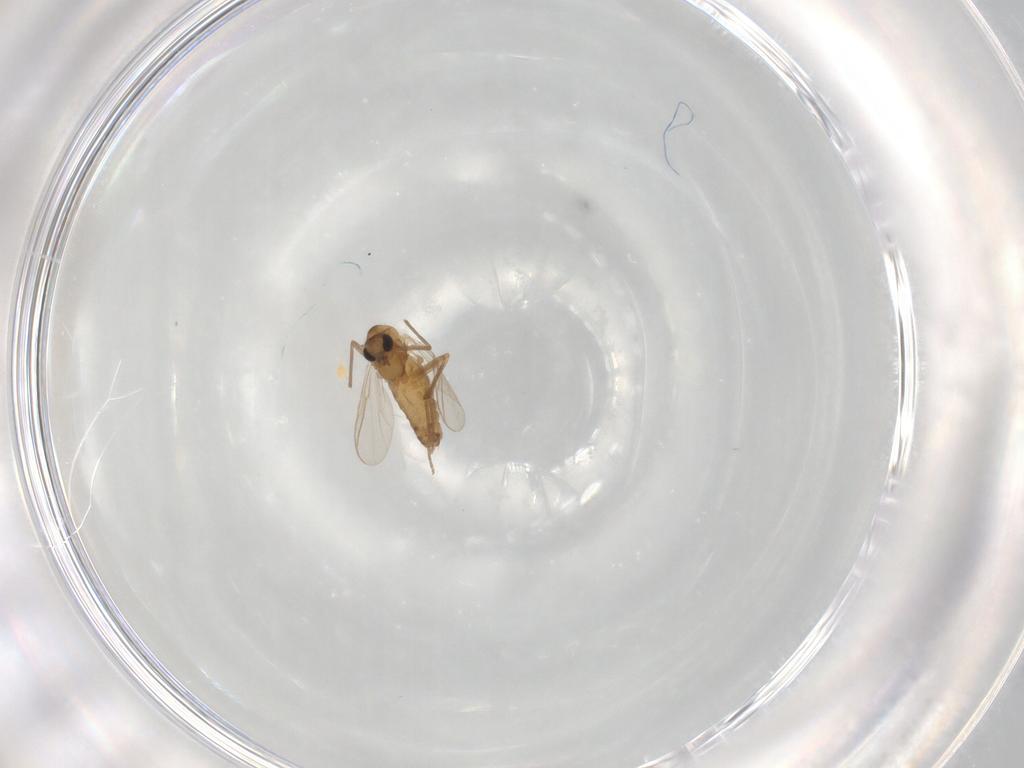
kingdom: Animalia
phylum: Arthropoda
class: Insecta
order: Diptera
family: Chironomidae
